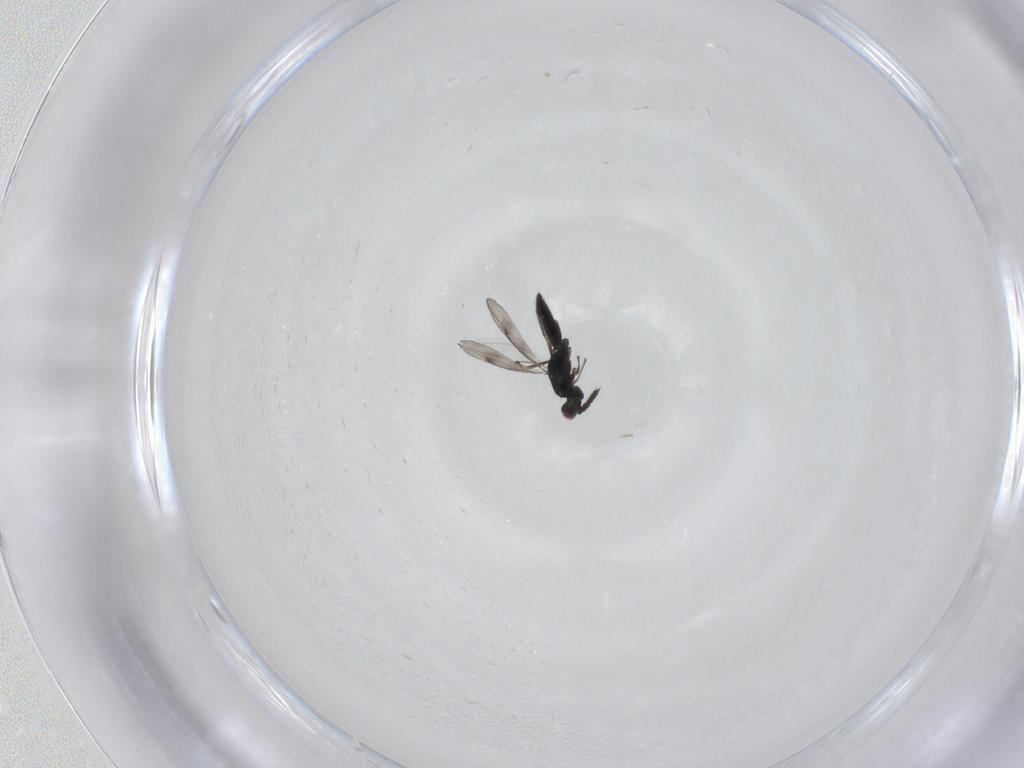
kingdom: Animalia
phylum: Arthropoda
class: Insecta
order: Hymenoptera
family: Eulophidae
